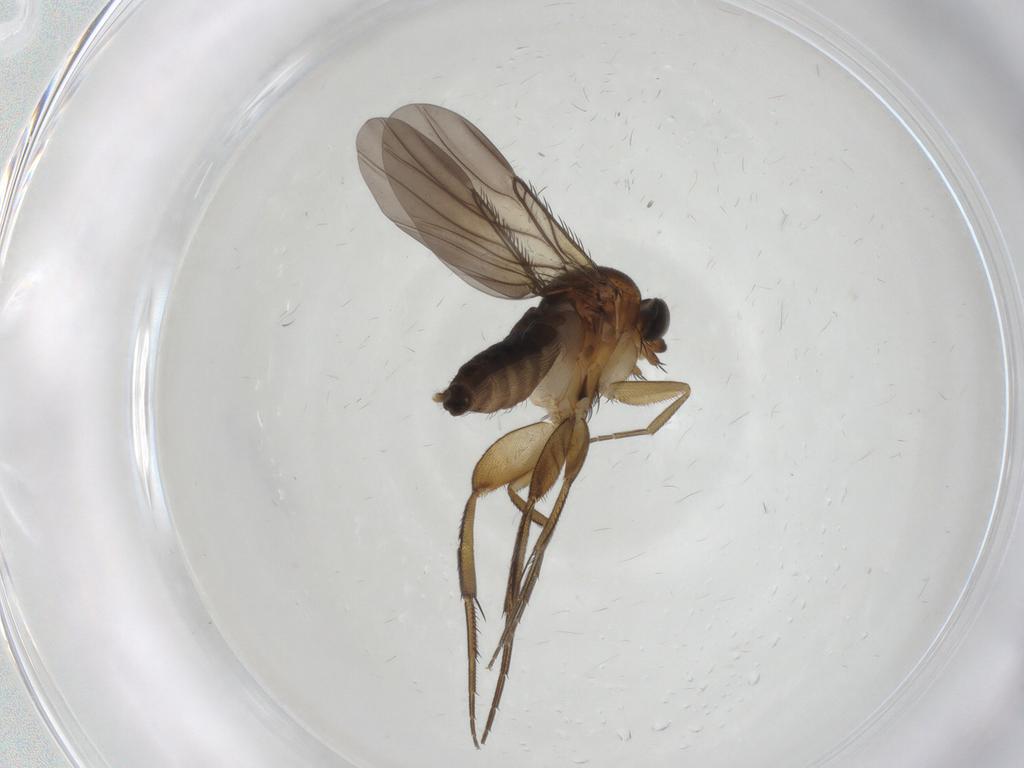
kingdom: Animalia
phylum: Arthropoda
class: Insecta
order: Diptera
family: Phoridae
